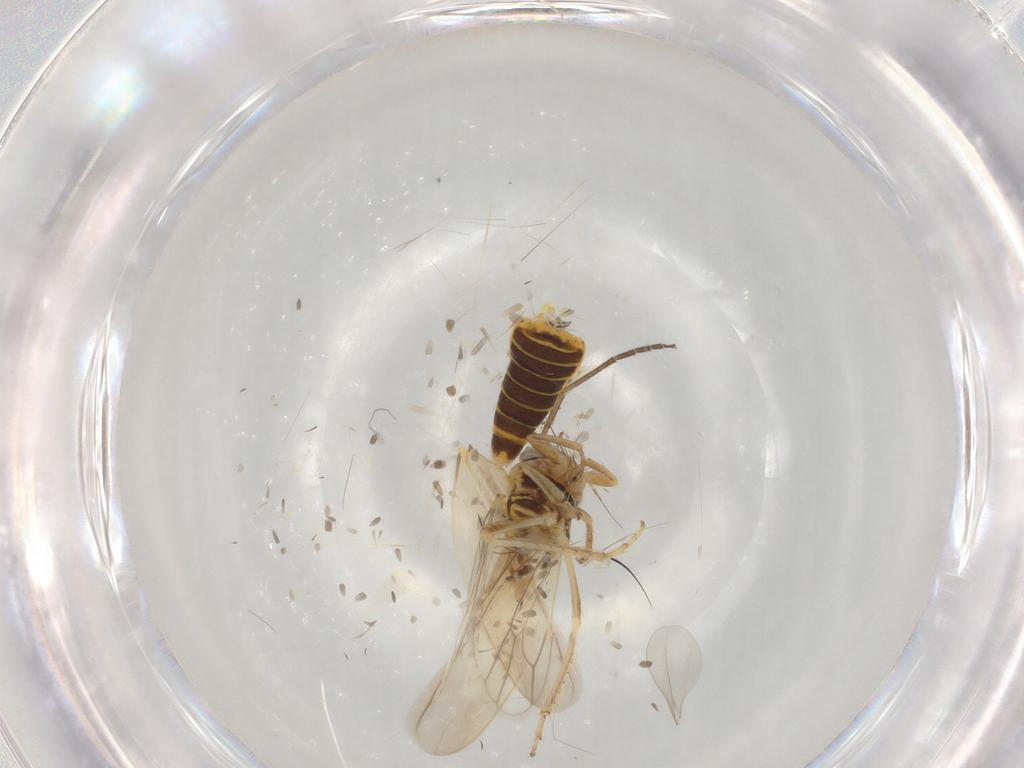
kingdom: Animalia
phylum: Arthropoda
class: Insecta
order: Hemiptera
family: Cicadellidae
